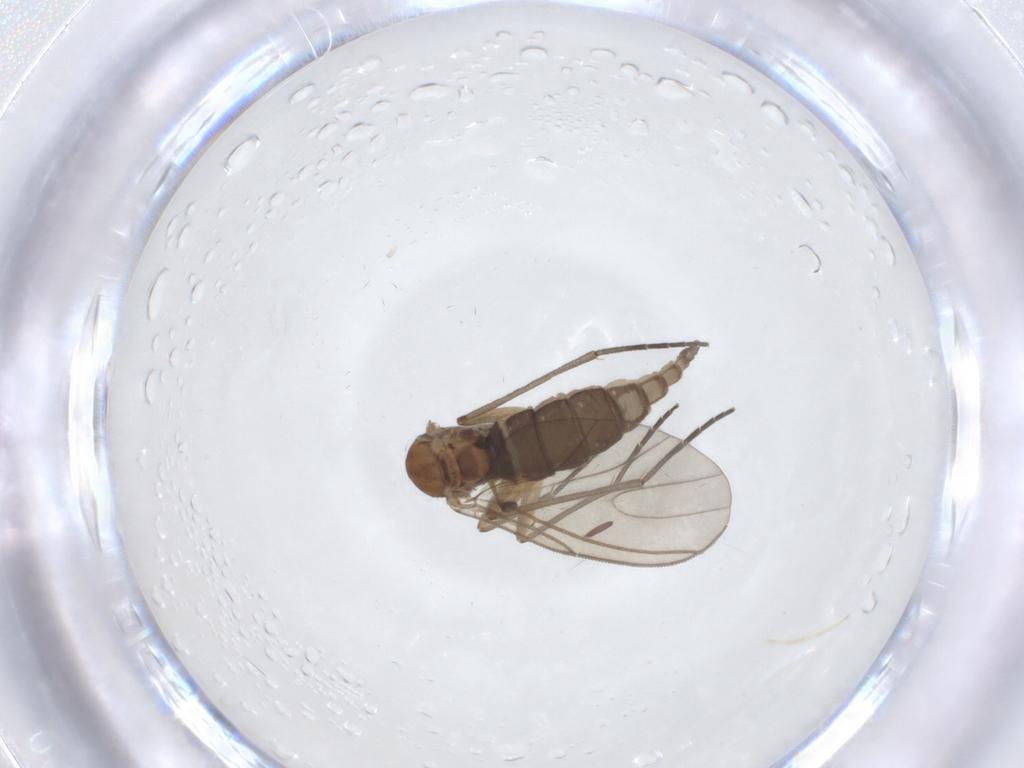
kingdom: Animalia
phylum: Arthropoda
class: Insecta
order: Diptera
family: Sciaridae
